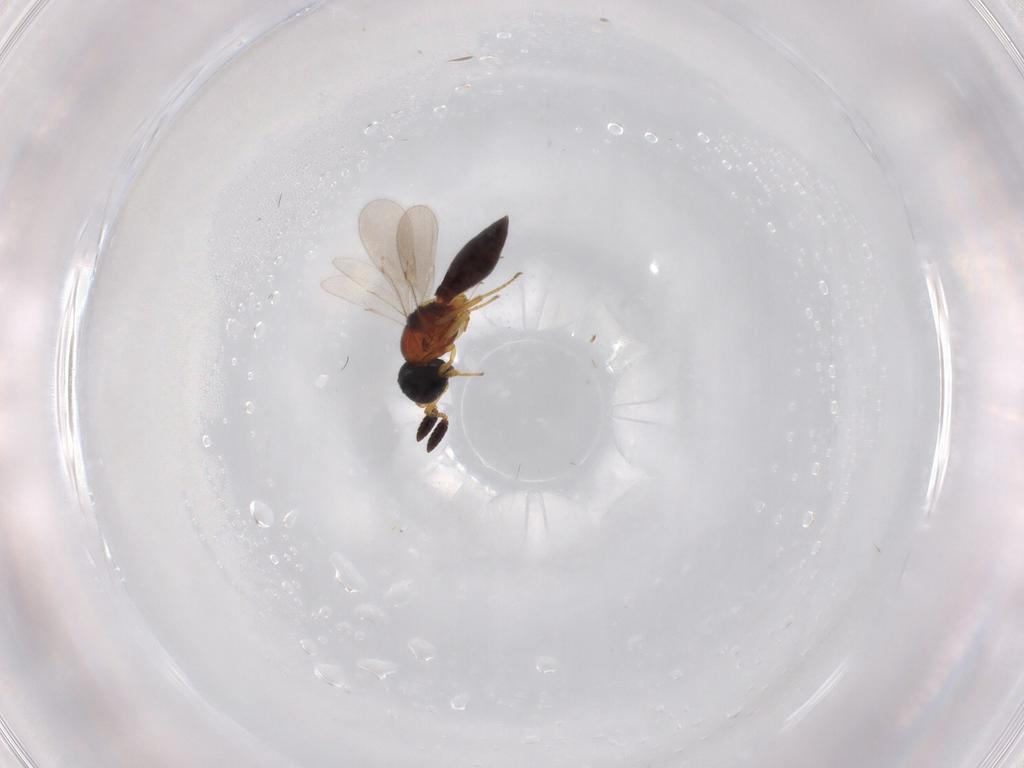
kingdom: Animalia
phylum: Arthropoda
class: Insecta
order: Hymenoptera
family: Scelionidae
